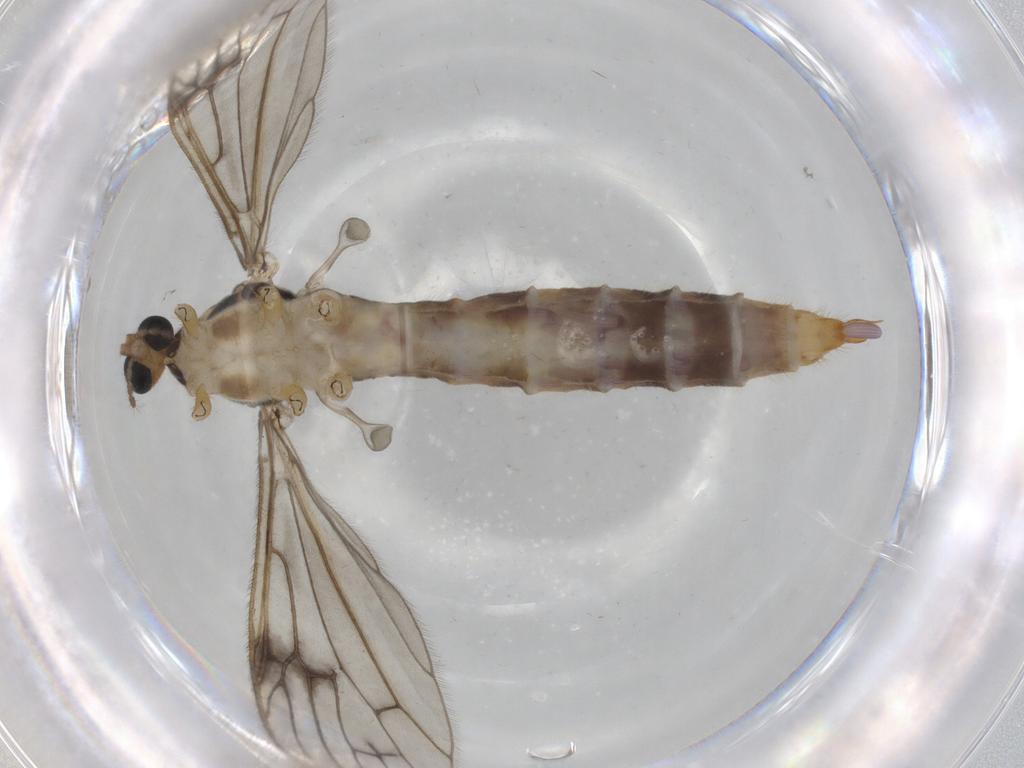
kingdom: Animalia
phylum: Arthropoda
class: Insecta
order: Diptera
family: Limoniidae
